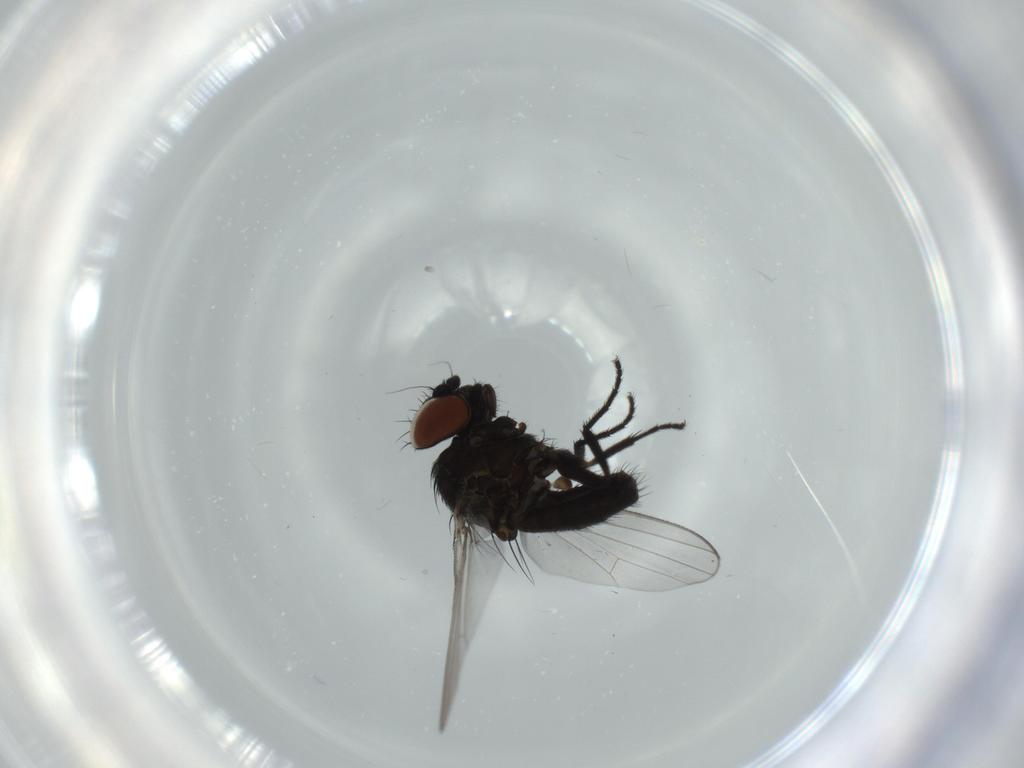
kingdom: Animalia
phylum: Arthropoda
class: Insecta
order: Diptera
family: Milichiidae
